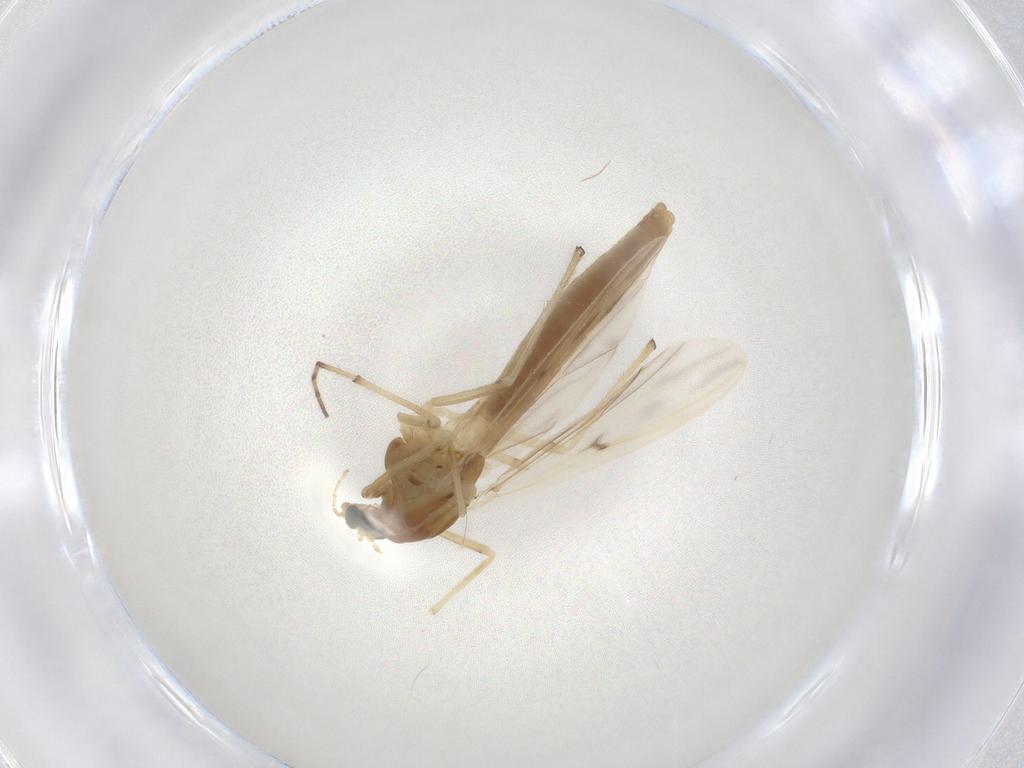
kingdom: Animalia
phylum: Arthropoda
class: Insecta
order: Diptera
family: Chironomidae
